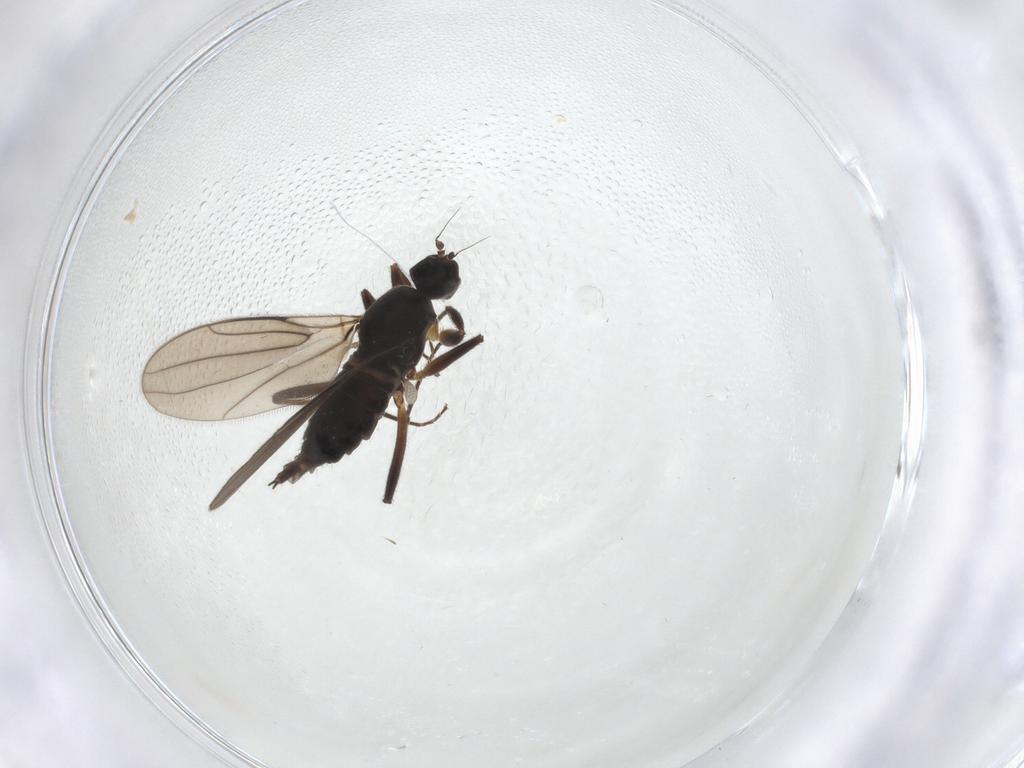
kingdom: Animalia
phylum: Arthropoda
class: Insecta
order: Diptera
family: Hybotidae
